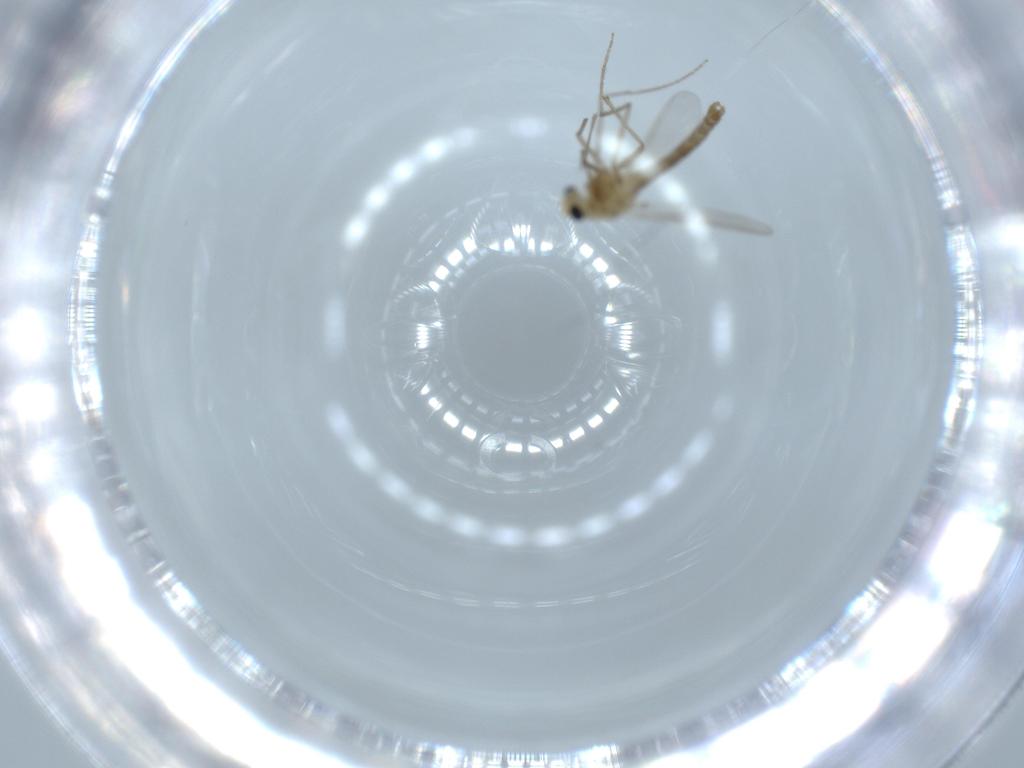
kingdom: Animalia
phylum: Arthropoda
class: Insecta
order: Diptera
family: Chironomidae
